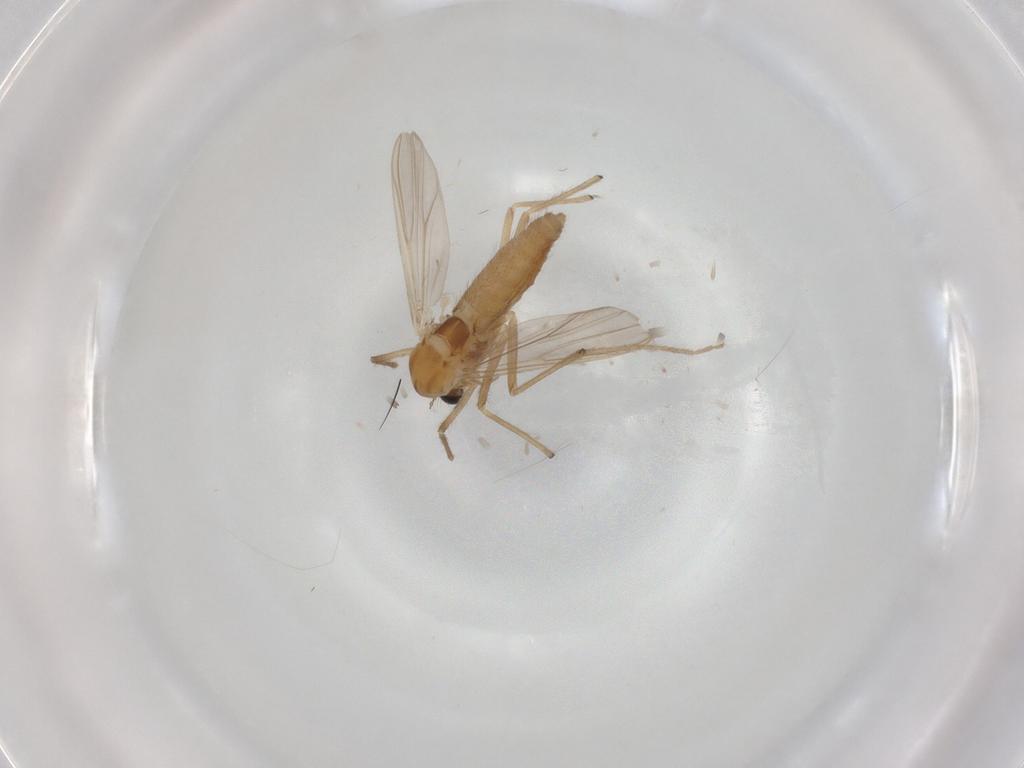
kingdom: Animalia
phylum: Arthropoda
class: Insecta
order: Diptera
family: Chironomidae
